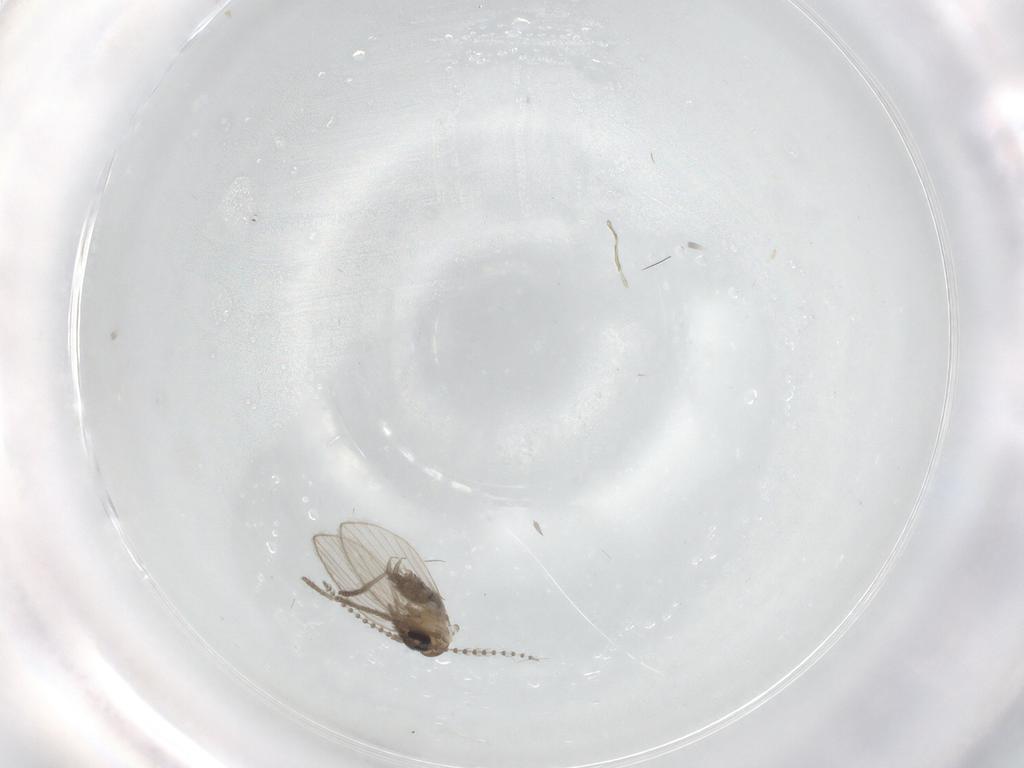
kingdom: Animalia
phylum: Arthropoda
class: Insecta
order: Diptera
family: Psychodidae
